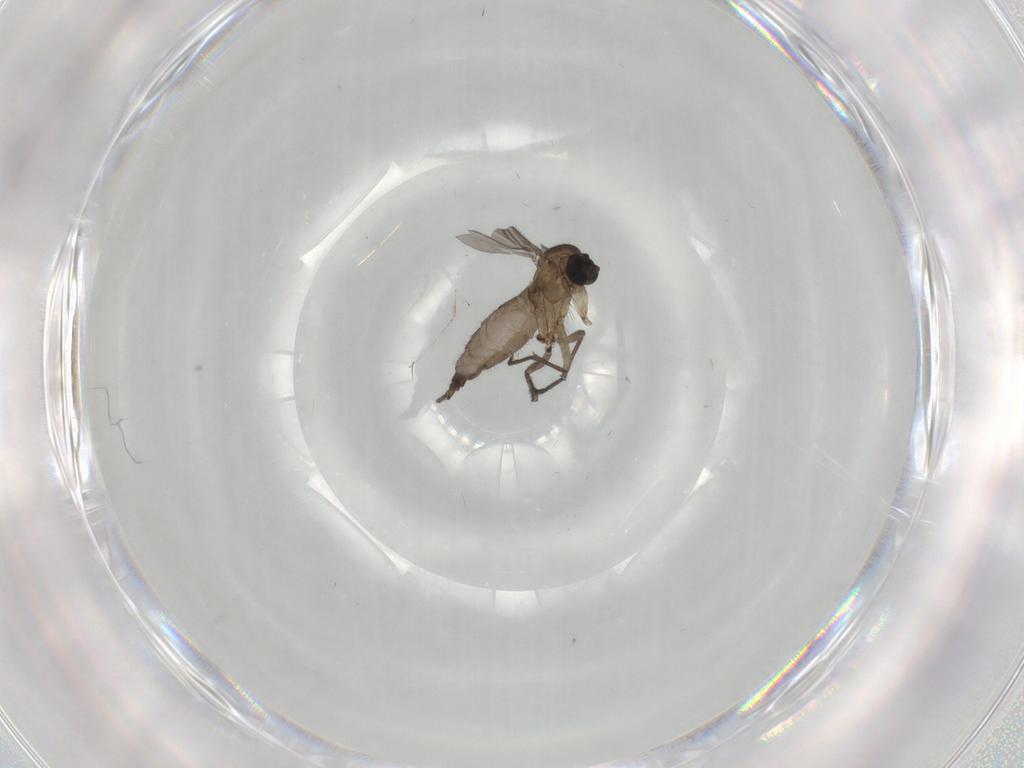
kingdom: Animalia
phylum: Arthropoda
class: Insecta
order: Diptera
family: Sciaridae
